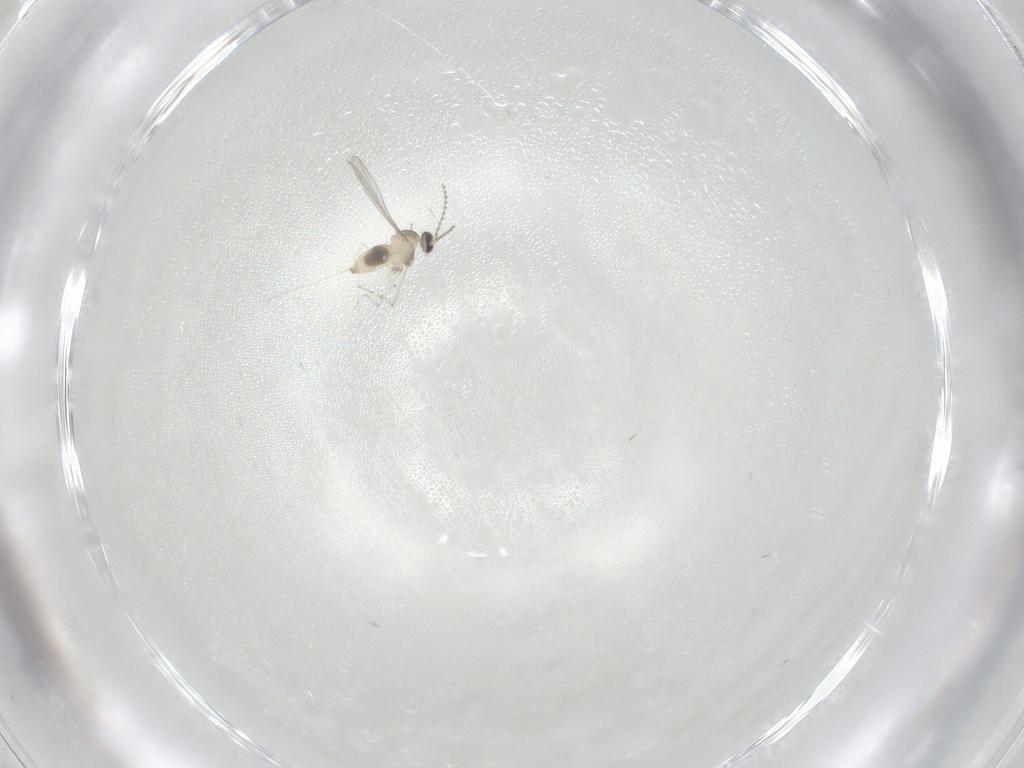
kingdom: Animalia
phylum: Arthropoda
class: Insecta
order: Diptera
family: Cecidomyiidae
